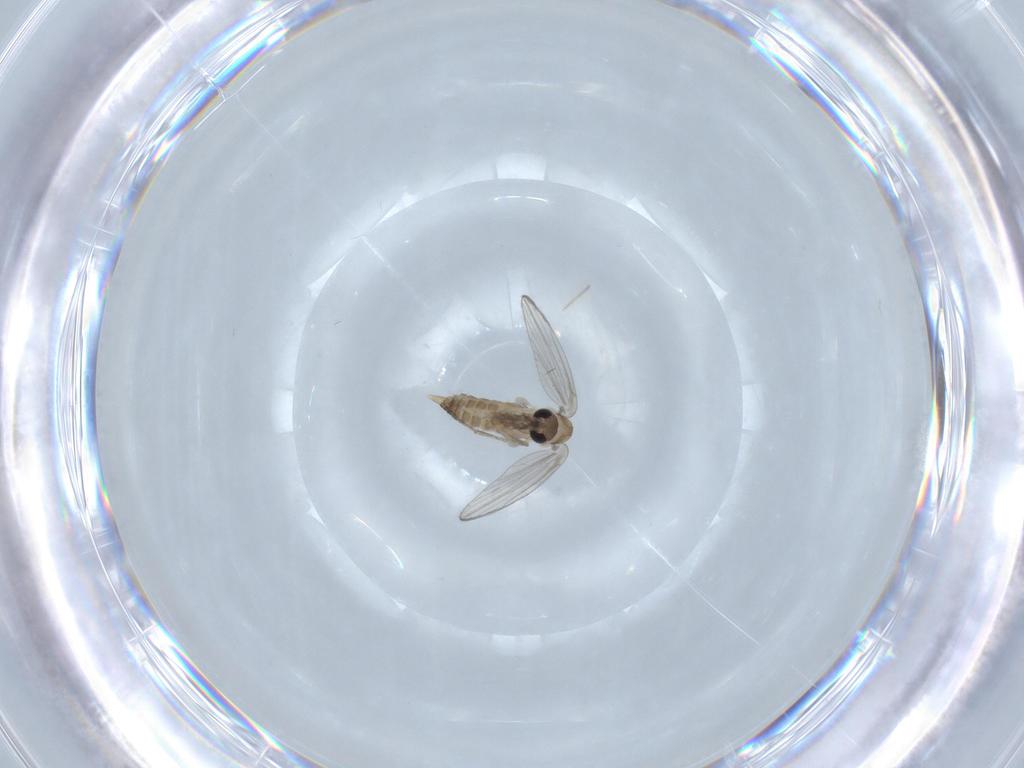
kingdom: Animalia
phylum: Arthropoda
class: Insecta
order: Diptera
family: Psychodidae
